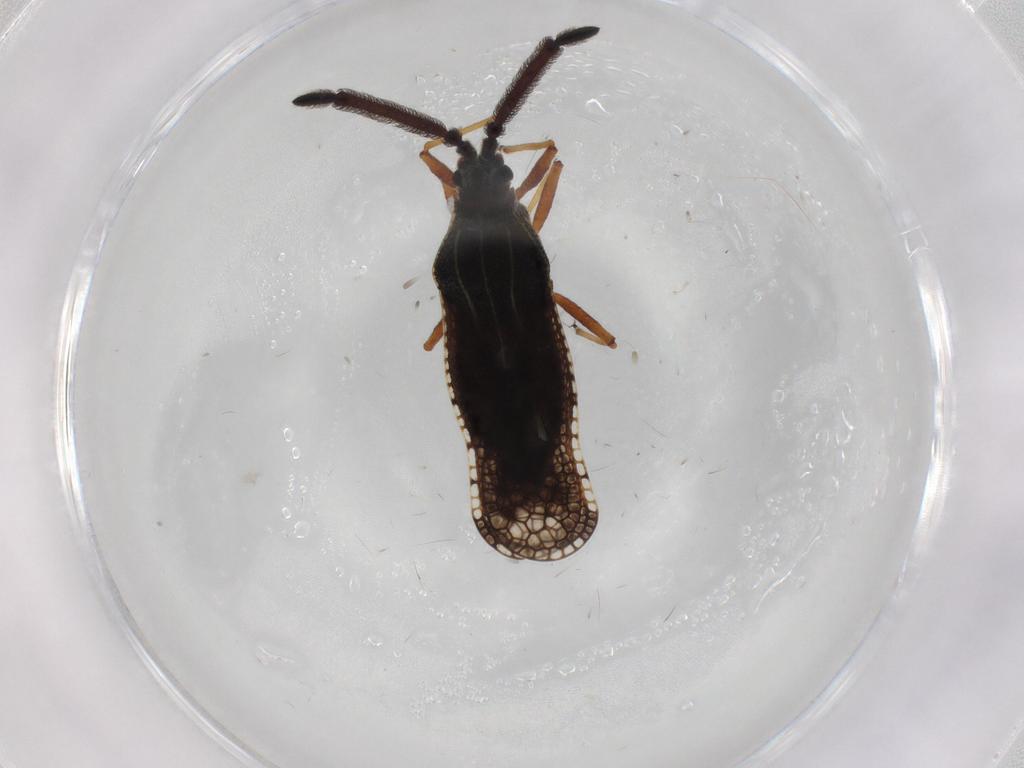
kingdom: Animalia
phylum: Arthropoda
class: Insecta
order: Hemiptera
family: Tingidae
